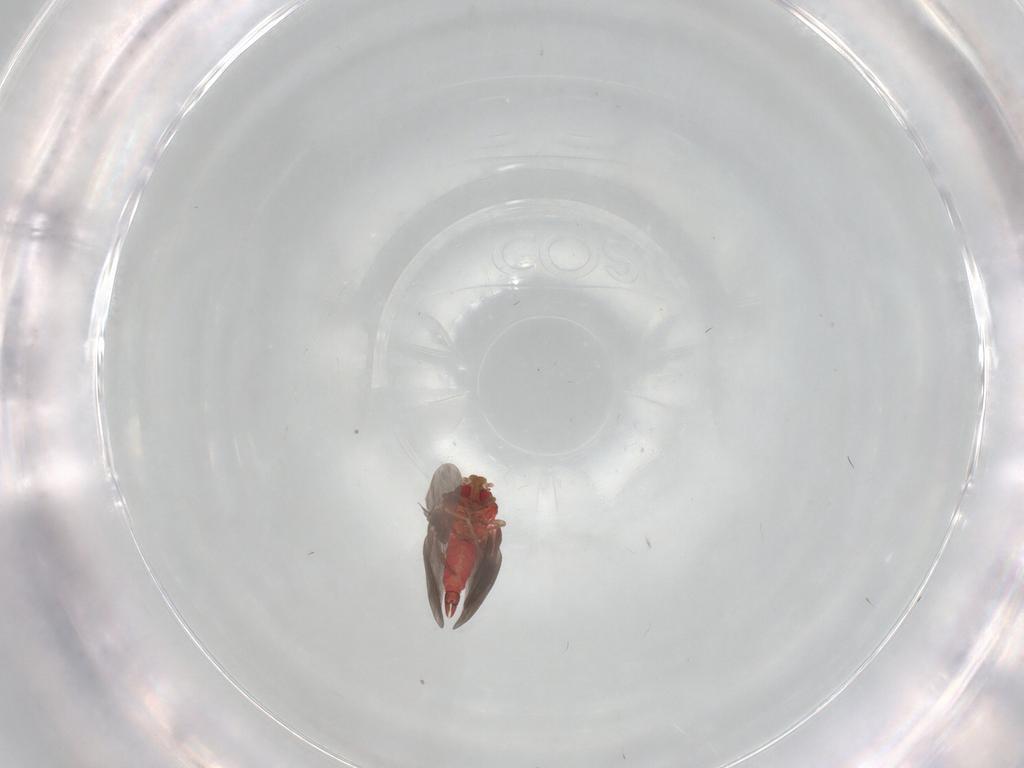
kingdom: Animalia
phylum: Arthropoda
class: Insecta
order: Hemiptera
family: Aleyrodidae
